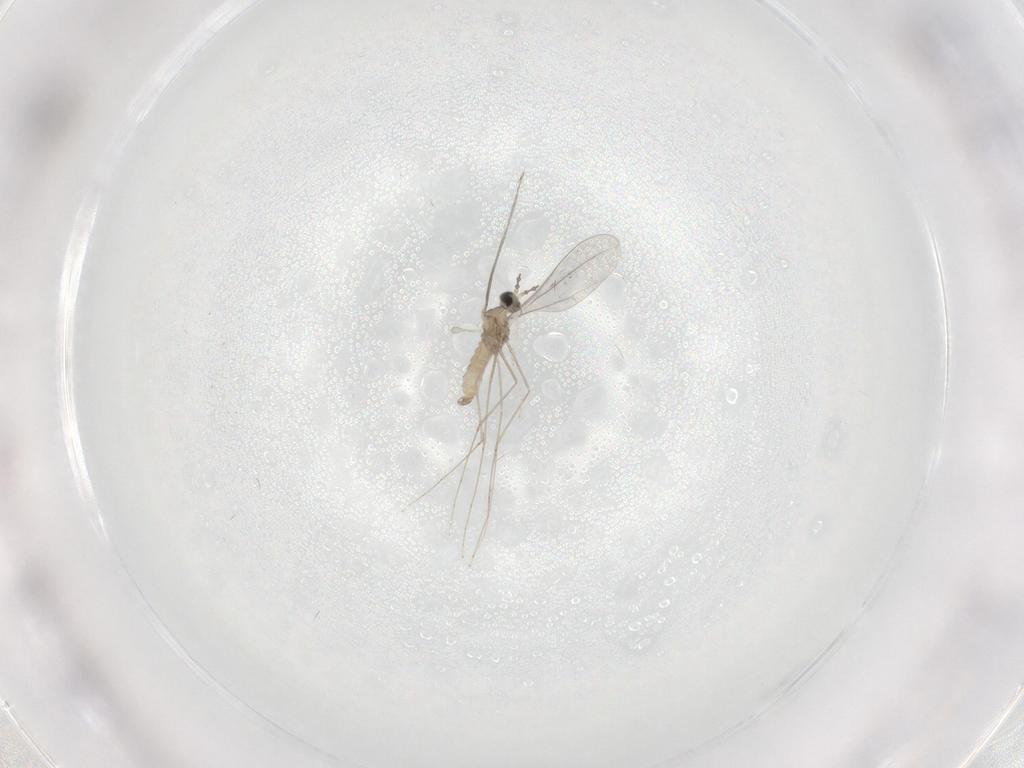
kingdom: Animalia
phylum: Arthropoda
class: Insecta
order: Diptera
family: Cecidomyiidae
